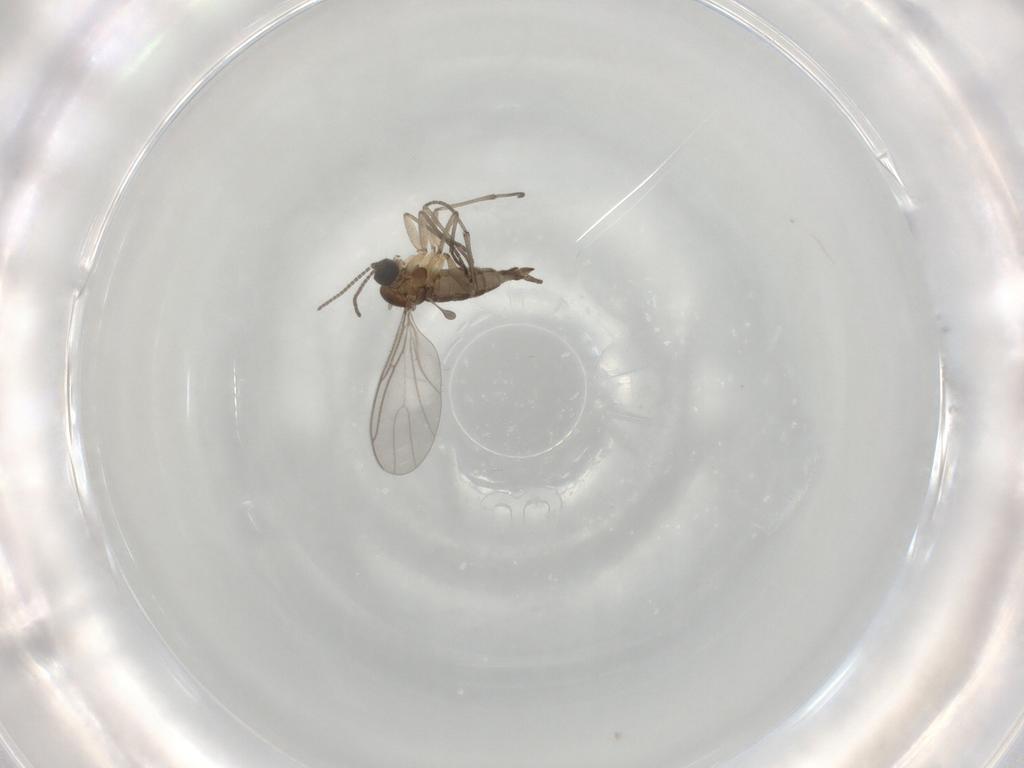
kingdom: Animalia
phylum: Arthropoda
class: Insecta
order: Diptera
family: Sciaridae
